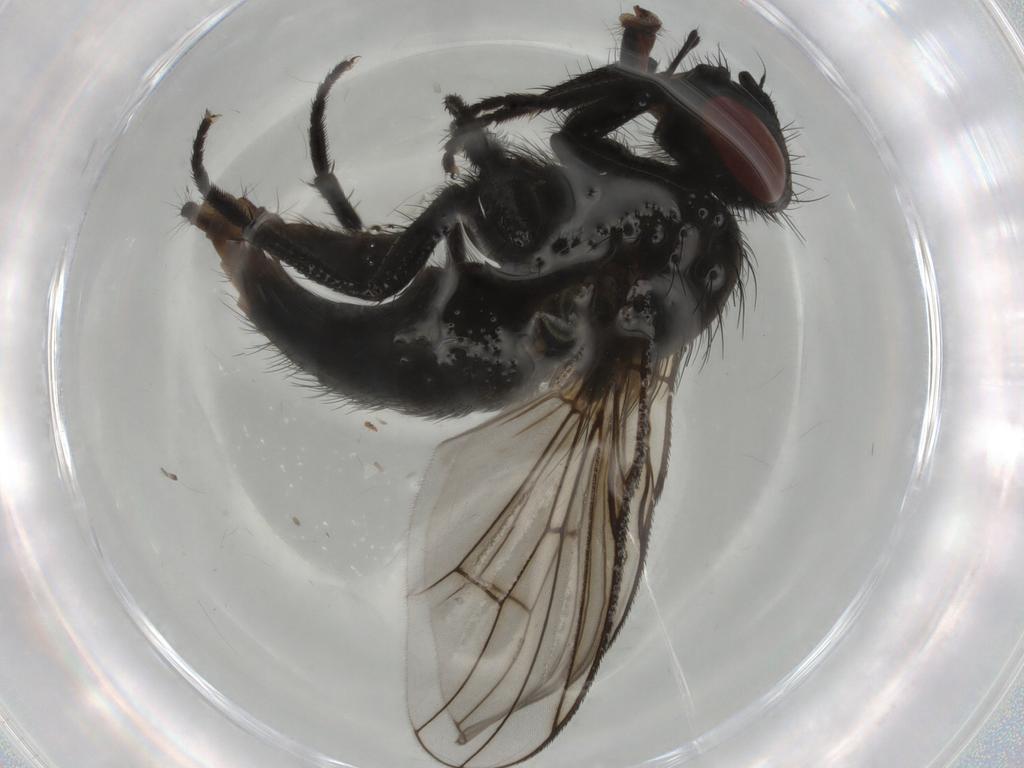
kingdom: Animalia
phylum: Arthropoda
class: Insecta
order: Diptera
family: Muscidae
